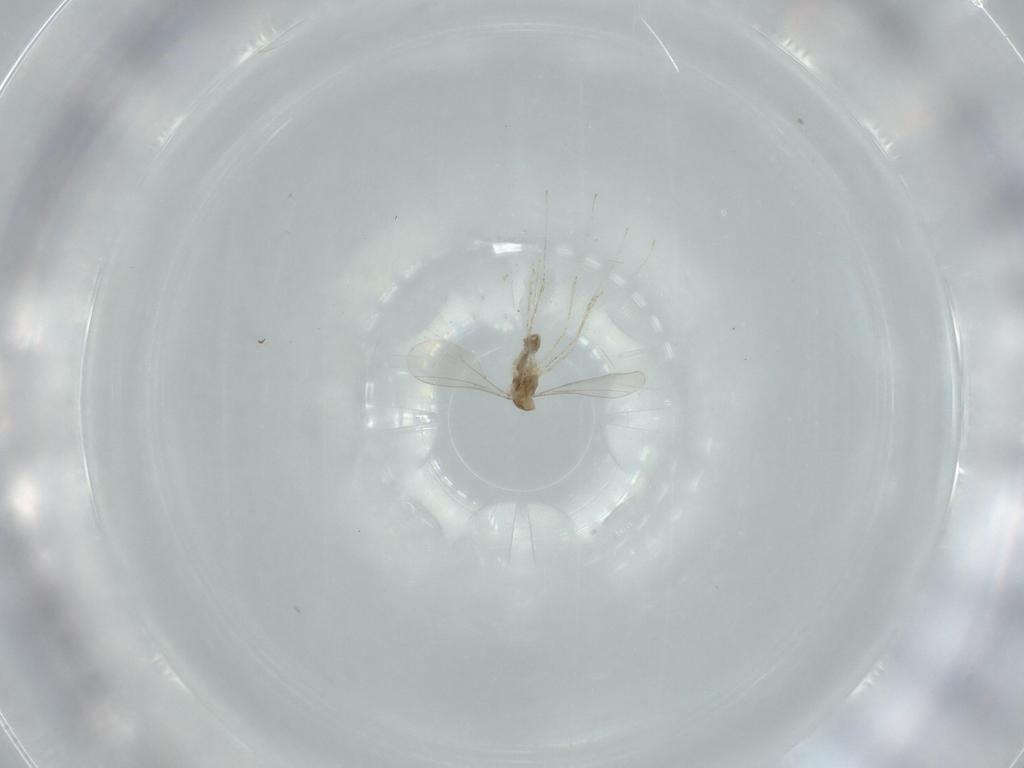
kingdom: Animalia
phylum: Arthropoda
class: Insecta
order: Diptera
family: Cecidomyiidae
